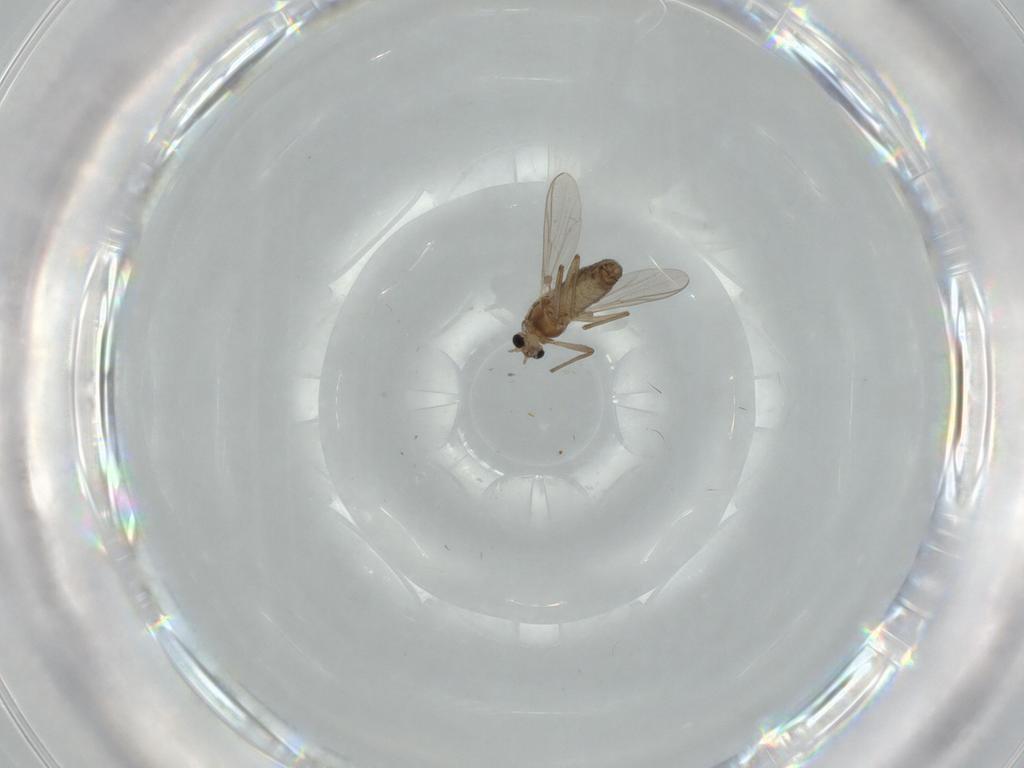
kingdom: Animalia
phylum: Arthropoda
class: Insecta
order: Diptera
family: Chironomidae
